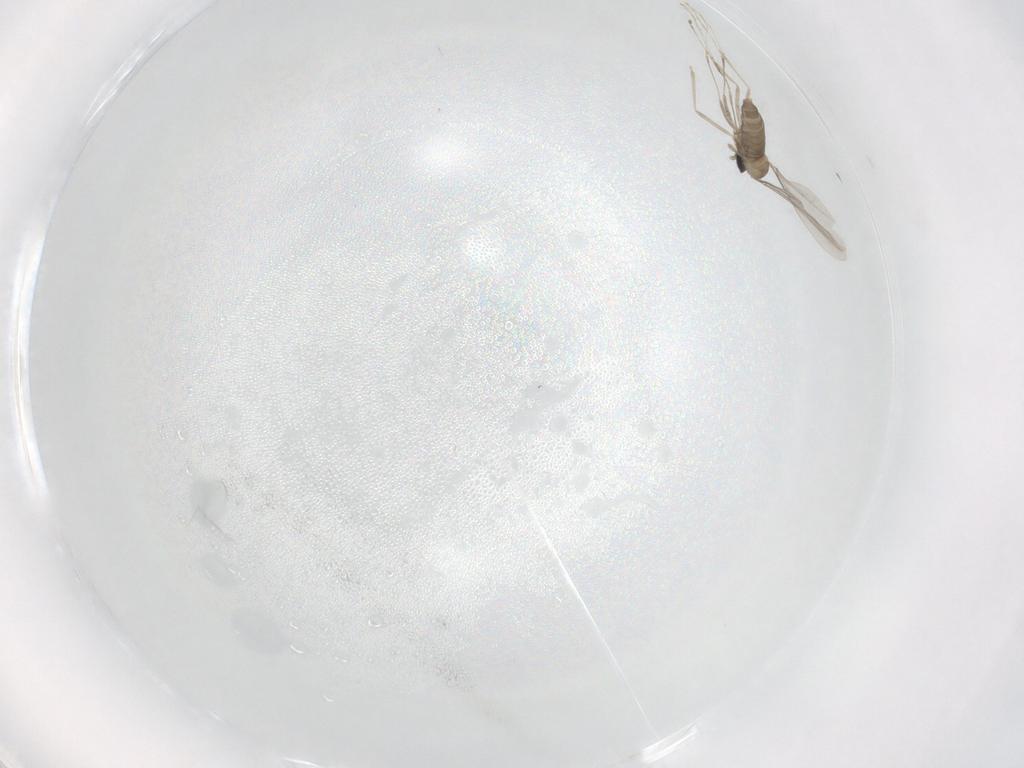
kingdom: Animalia
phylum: Arthropoda
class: Insecta
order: Diptera
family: Cecidomyiidae
